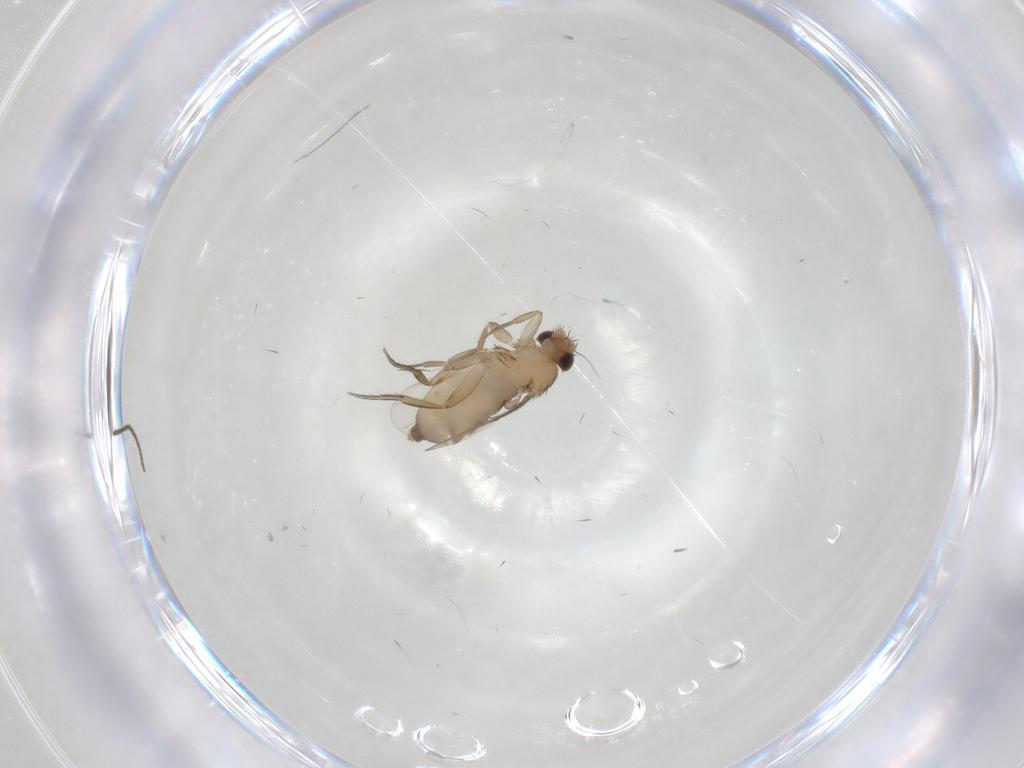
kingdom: Animalia
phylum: Arthropoda
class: Insecta
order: Diptera
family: Phoridae
